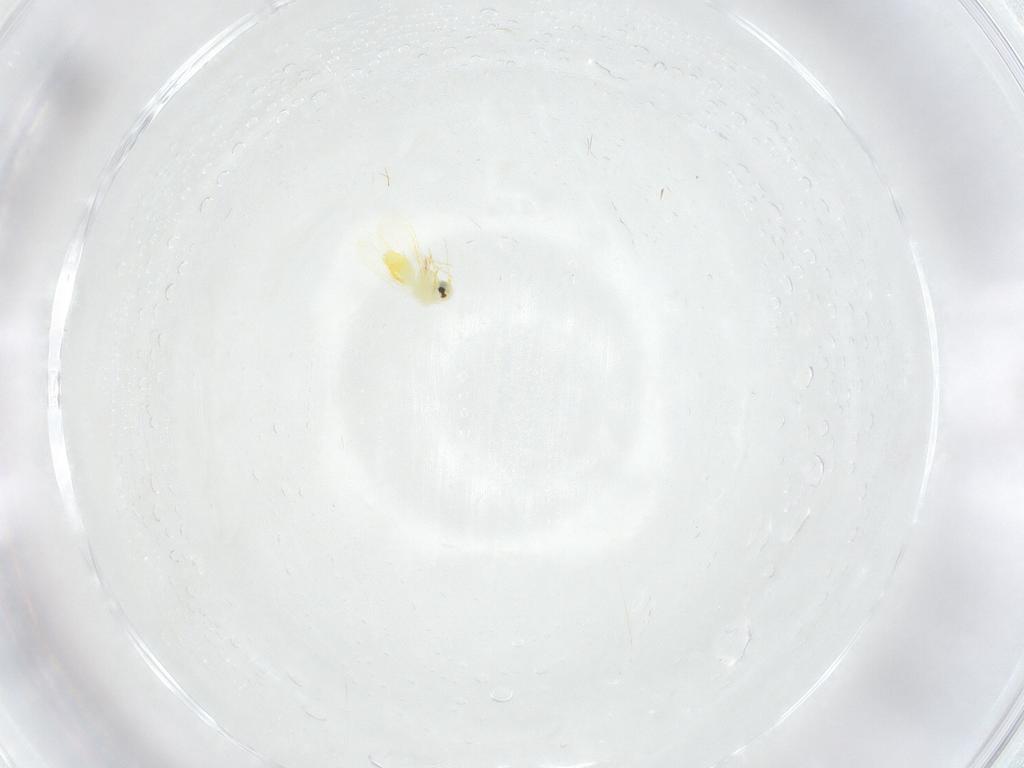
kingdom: Animalia
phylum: Arthropoda
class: Insecta
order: Hemiptera
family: Aleyrodidae
